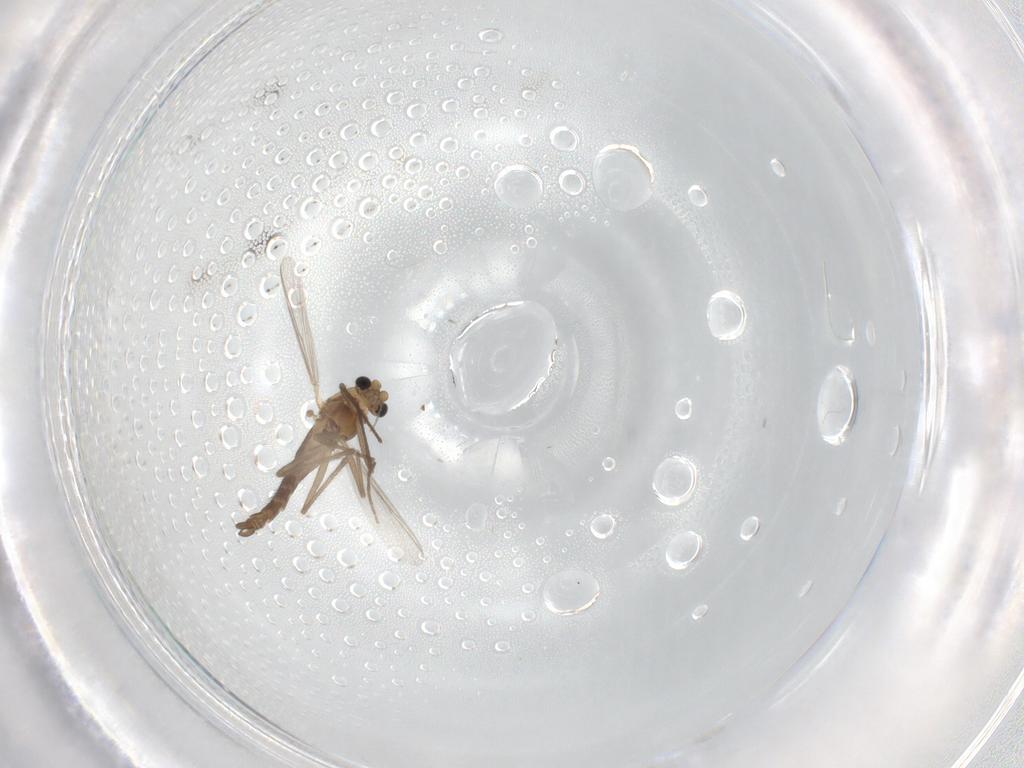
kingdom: Animalia
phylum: Arthropoda
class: Insecta
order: Diptera
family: Chironomidae
